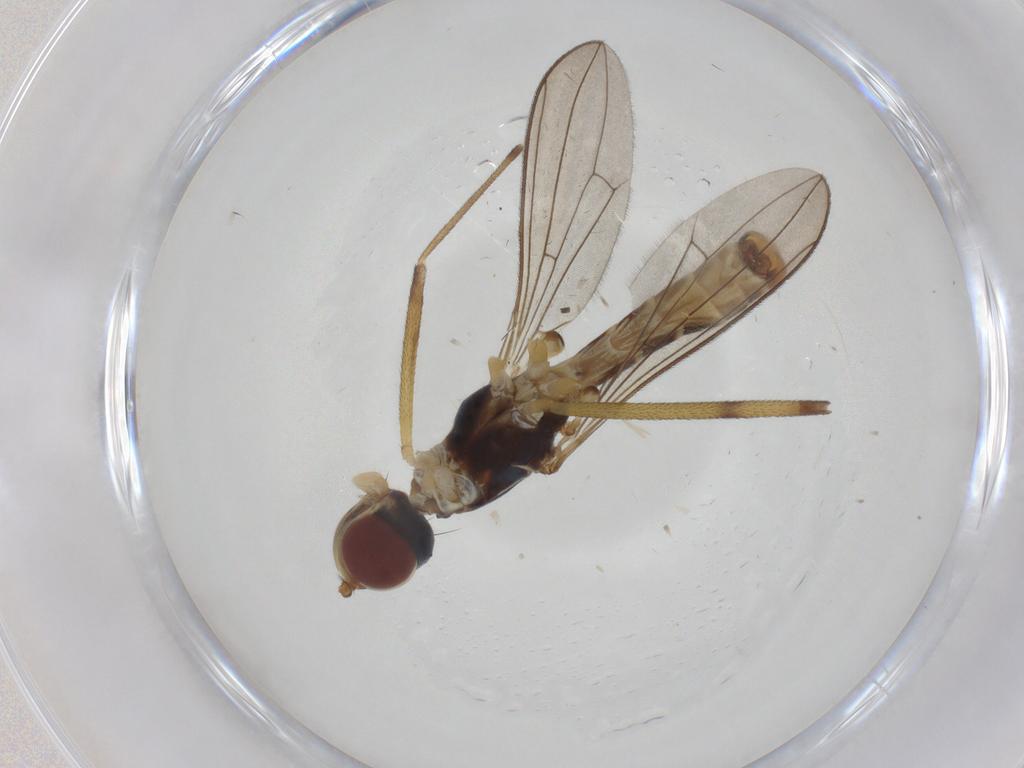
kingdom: Animalia
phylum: Arthropoda
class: Insecta
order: Diptera
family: Micropezidae
